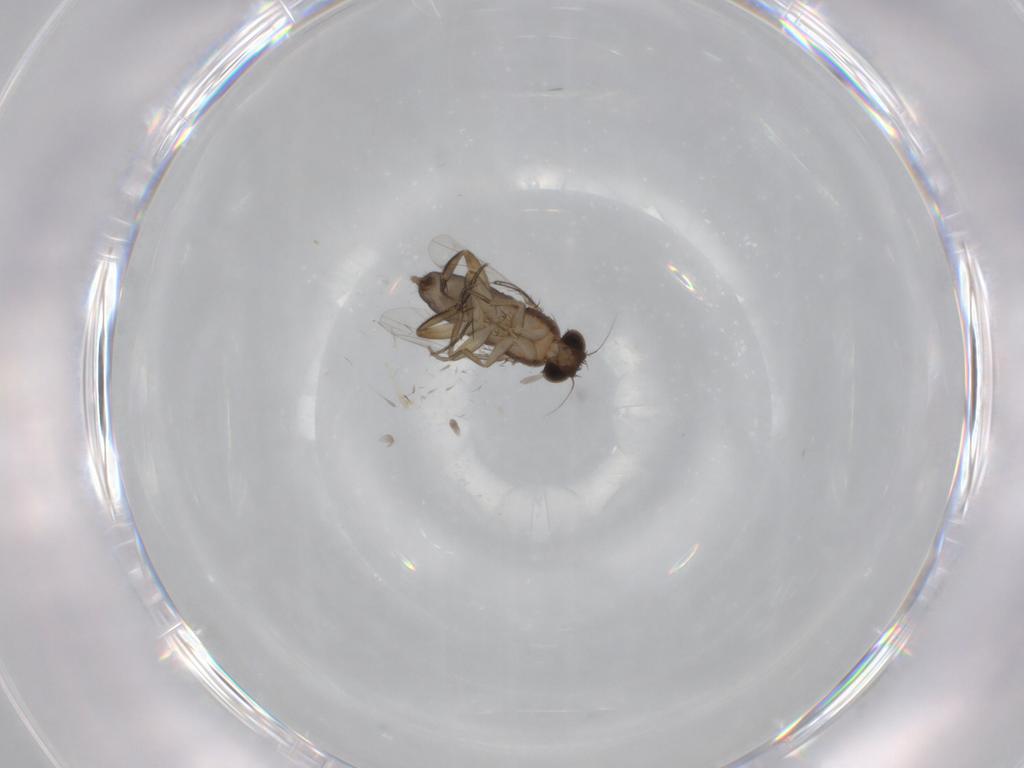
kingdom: Animalia
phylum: Arthropoda
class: Insecta
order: Diptera
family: Phoridae
